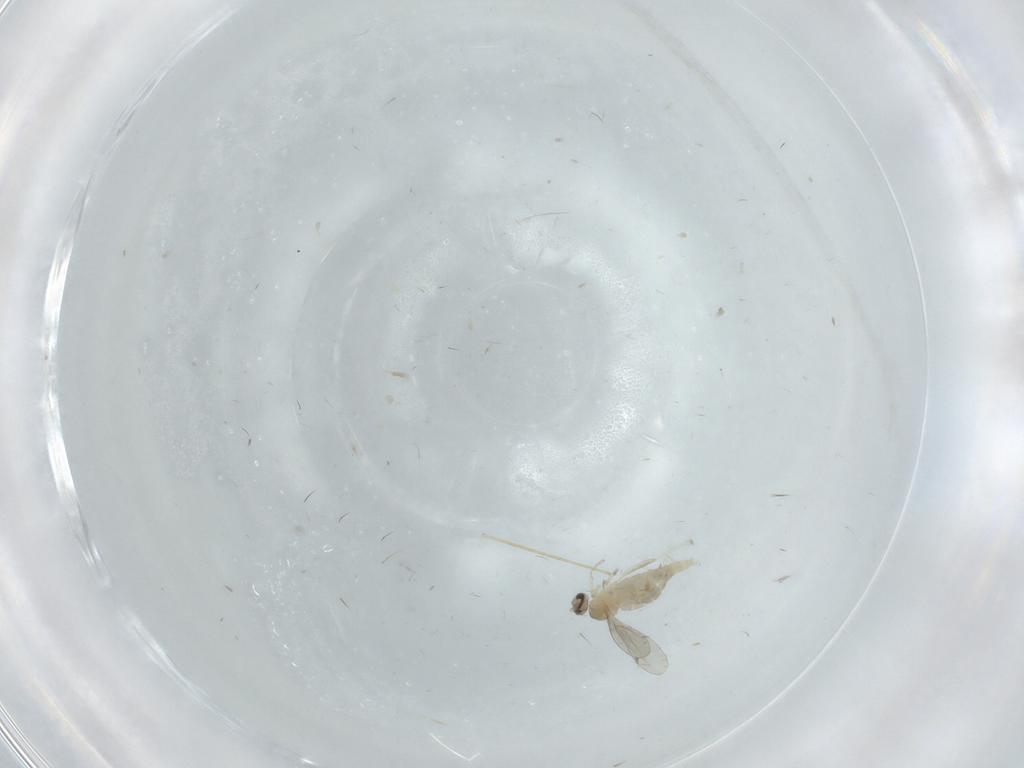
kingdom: Animalia
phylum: Arthropoda
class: Insecta
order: Diptera
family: Cecidomyiidae
